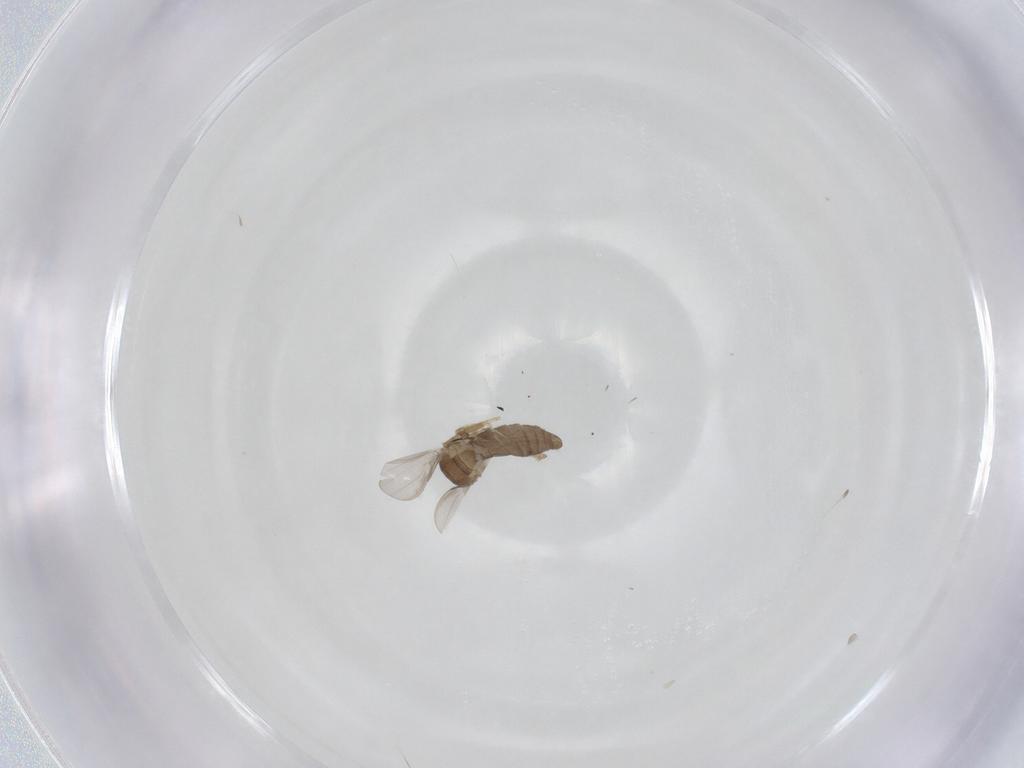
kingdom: Animalia
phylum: Arthropoda
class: Insecta
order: Diptera
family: Ceratopogonidae
